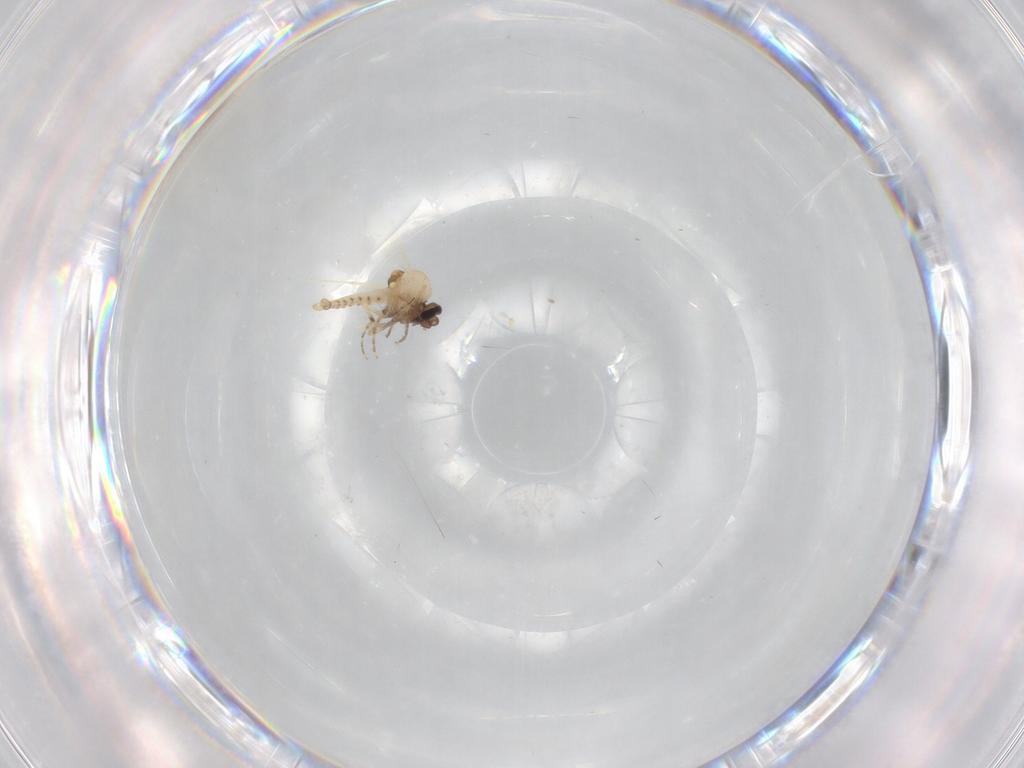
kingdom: Animalia
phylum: Arthropoda
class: Insecta
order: Diptera
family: Ceratopogonidae
